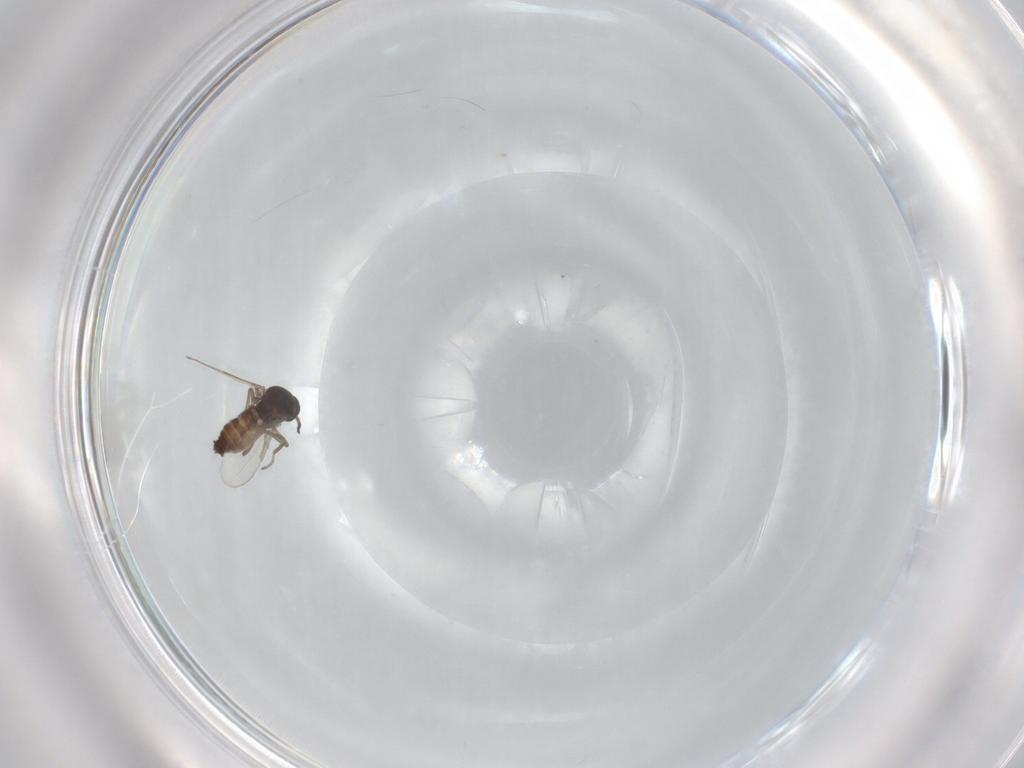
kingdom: Animalia
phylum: Arthropoda
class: Insecta
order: Diptera
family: Ceratopogonidae
